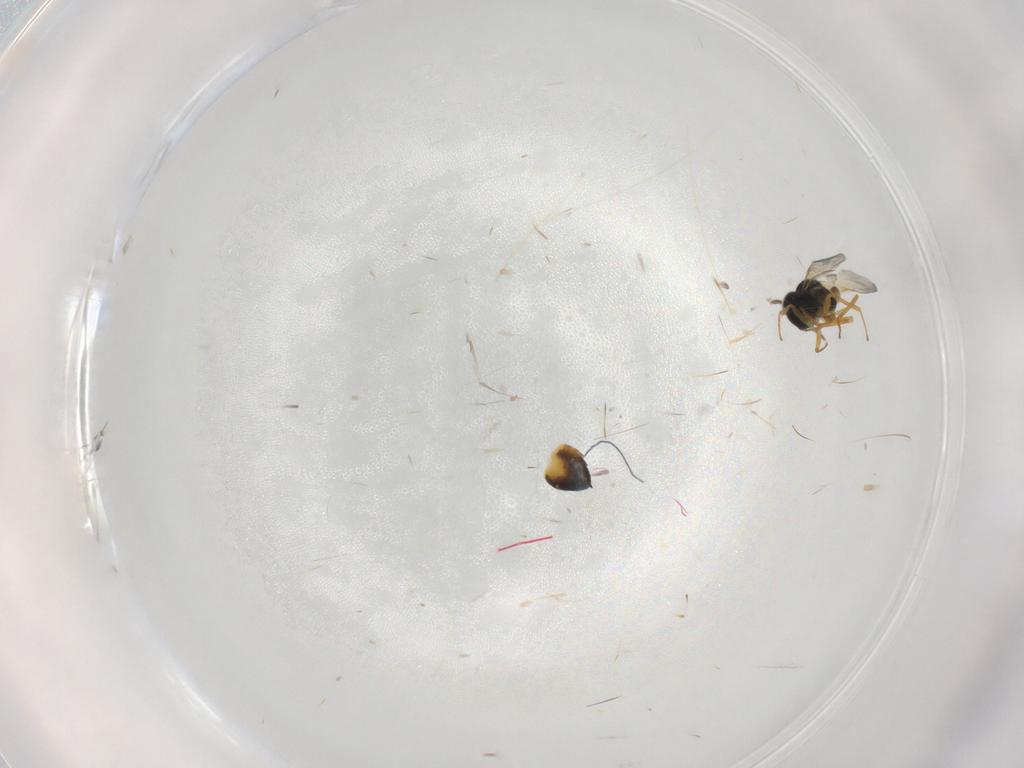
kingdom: Animalia
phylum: Arthropoda
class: Insecta
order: Hymenoptera
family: Encyrtidae
